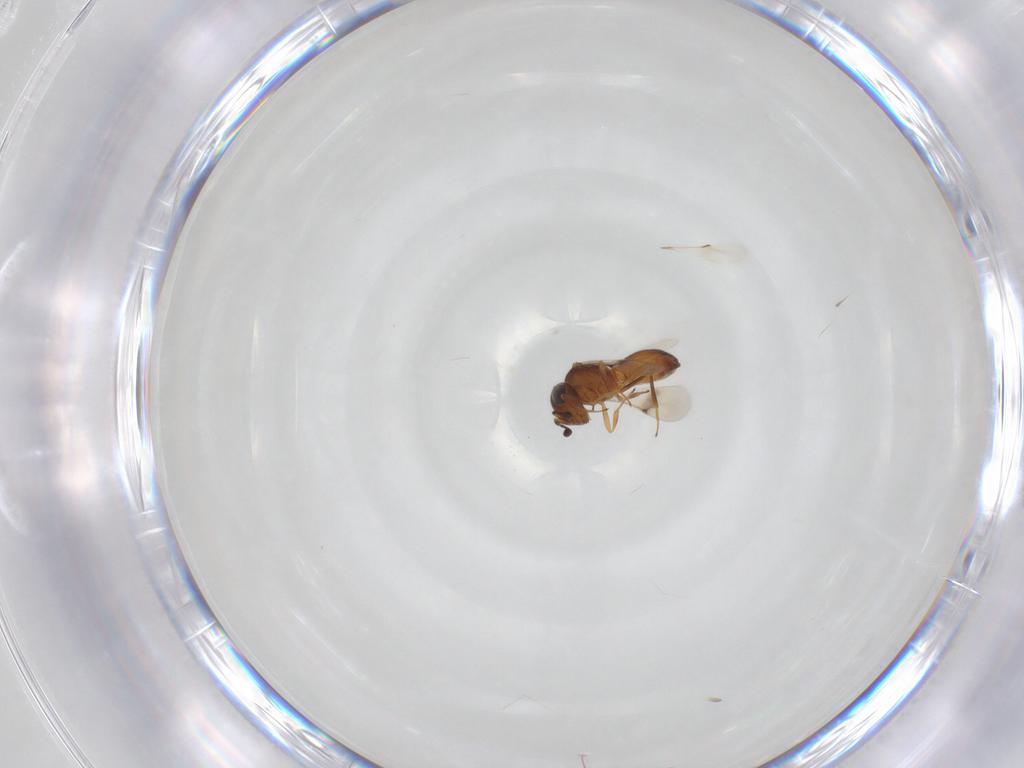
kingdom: Animalia
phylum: Arthropoda
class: Insecta
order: Hymenoptera
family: Scelionidae
